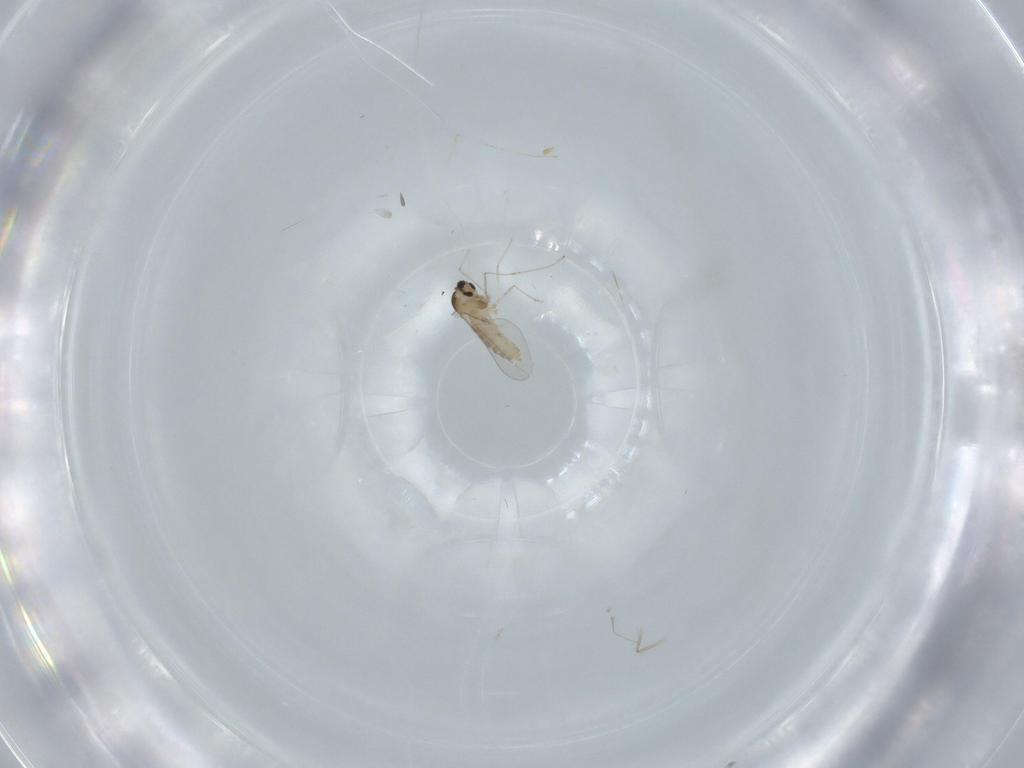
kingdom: Animalia
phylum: Arthropoda
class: Insecta
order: Diptera
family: Cecidomyiidae
